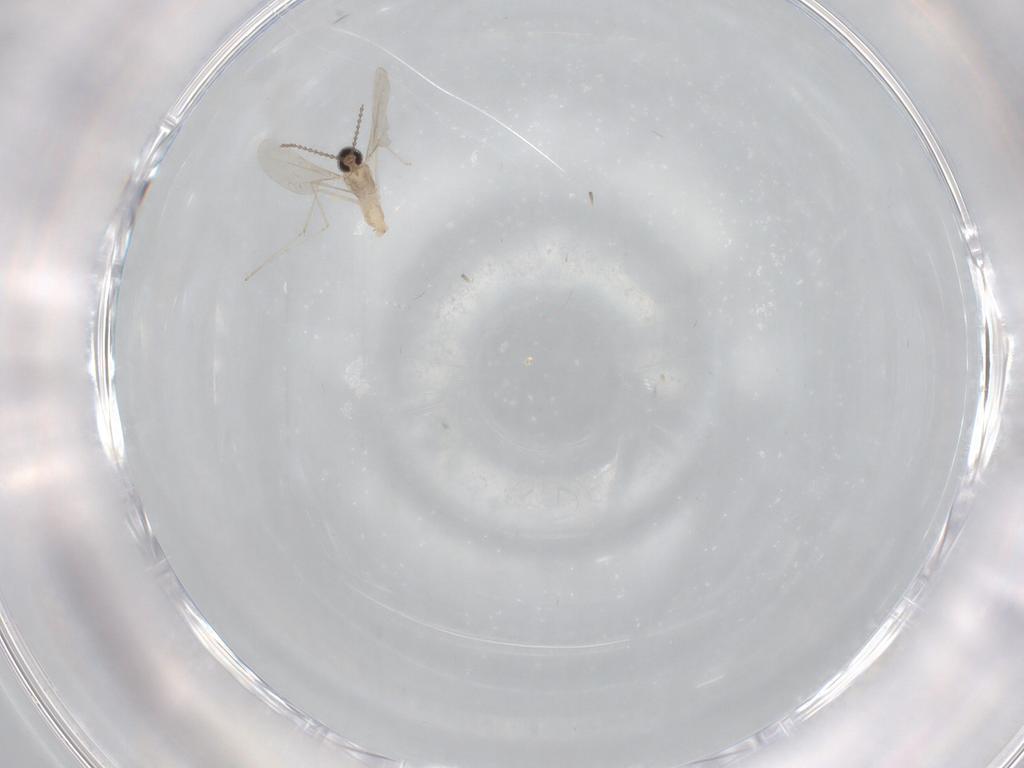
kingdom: Animalia
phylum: Arthropoda
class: Insecta
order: Diptera
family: Cecidomyiidae
